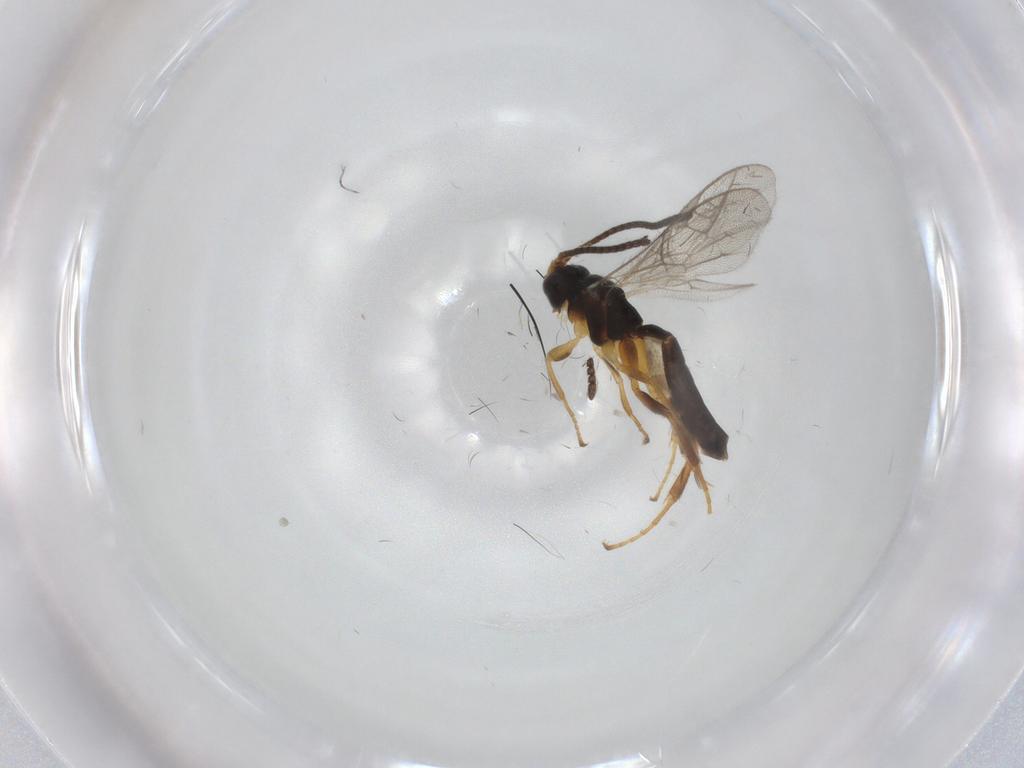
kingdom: Animalia
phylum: Arthropoda
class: Insecta
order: Hymenoptera
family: Ichneumonidae
